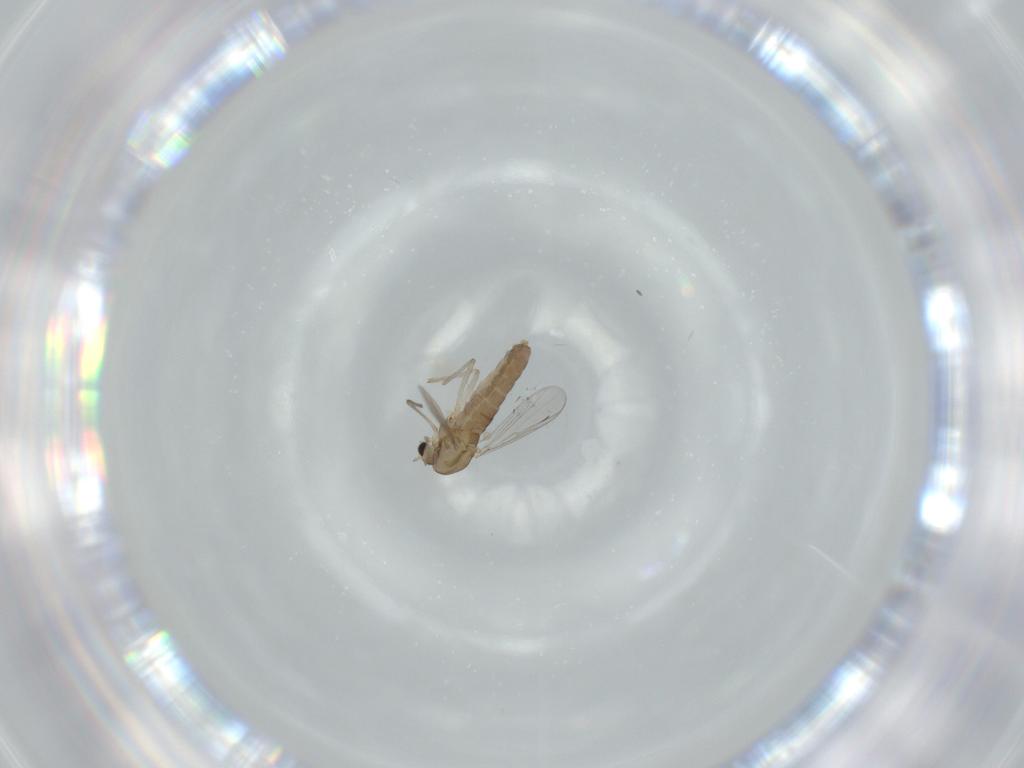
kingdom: Animalia
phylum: Arthropoda
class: Insecta
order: Diptera
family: Chironomidae
